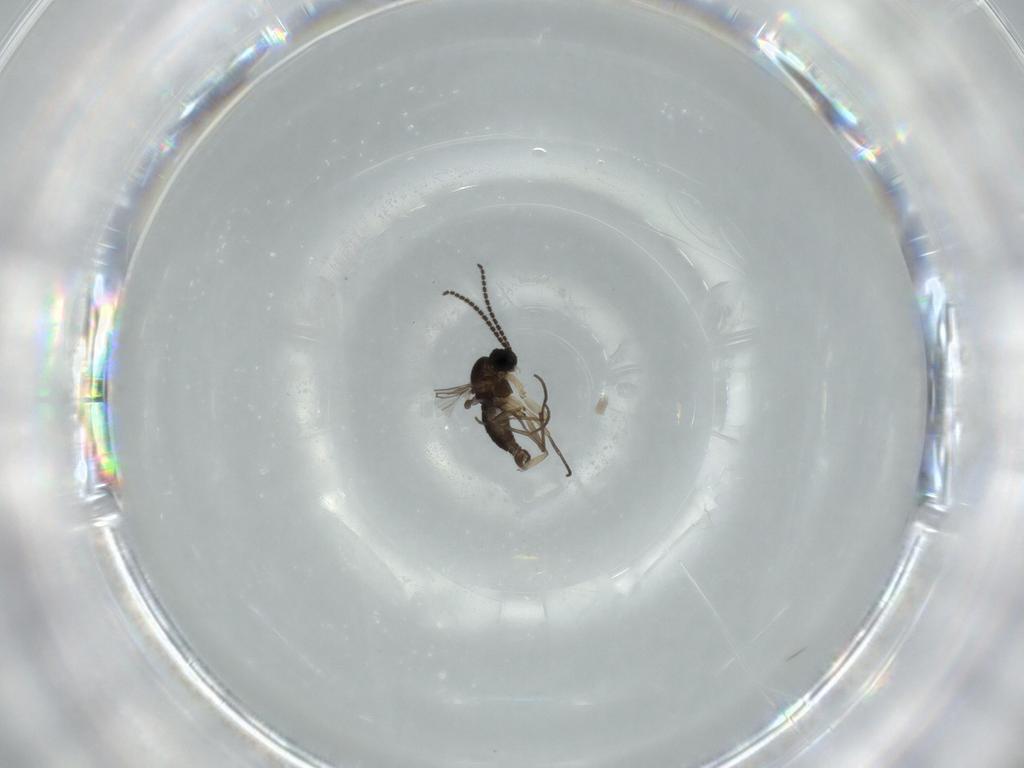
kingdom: Animalia
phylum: Arthropoda
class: Insecta
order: Diptera
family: Sciaridae
